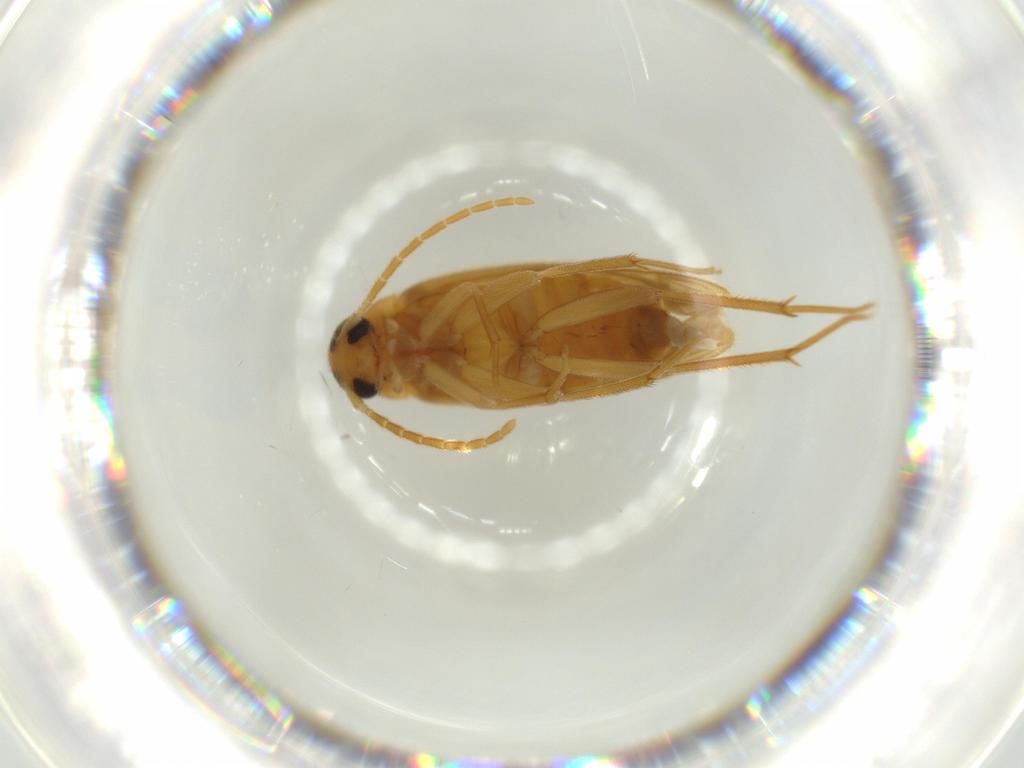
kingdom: Animalia
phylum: Arthropoda
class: Insecta
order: Coleoptera
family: Scraptiidae
